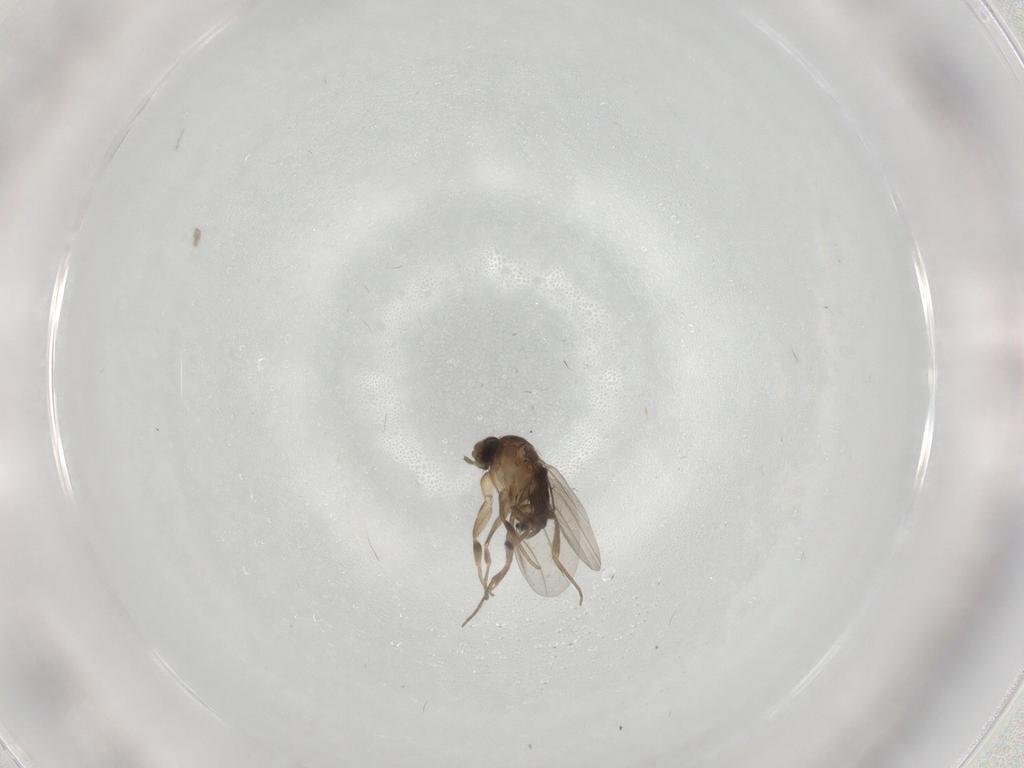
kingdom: Animalia
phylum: Arthropoda
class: Insecta
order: Diptera
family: Phoridae
